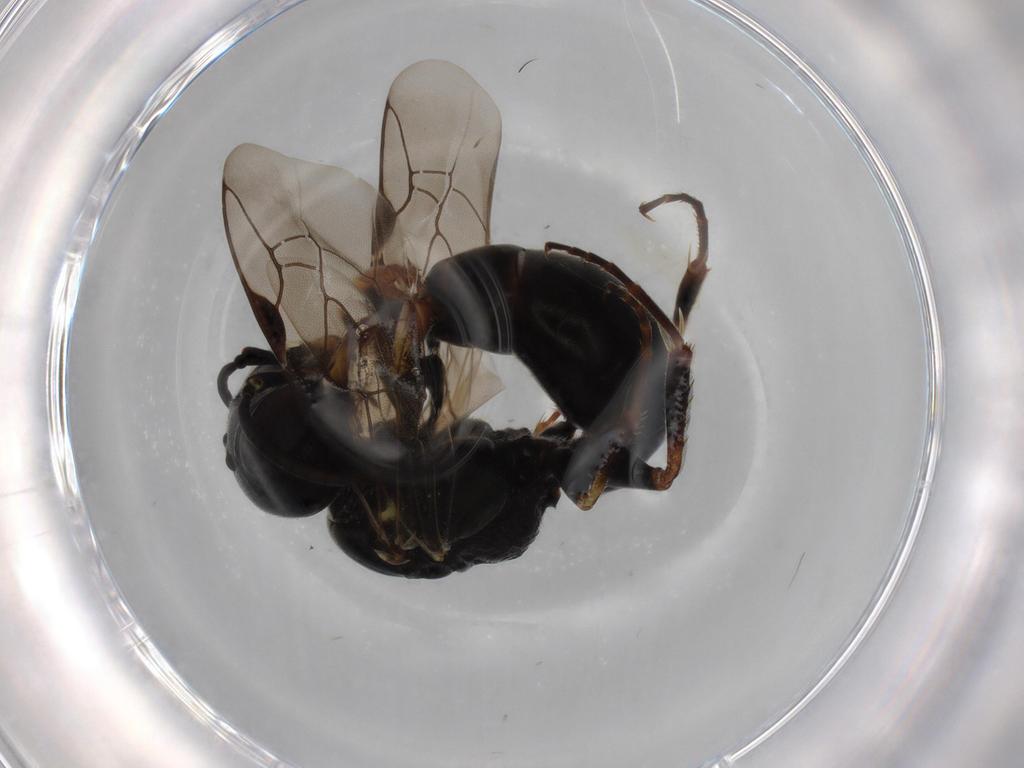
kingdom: Animalia
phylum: Arthropoda
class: Insecta
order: Hymenoptera
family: Crabronidae
